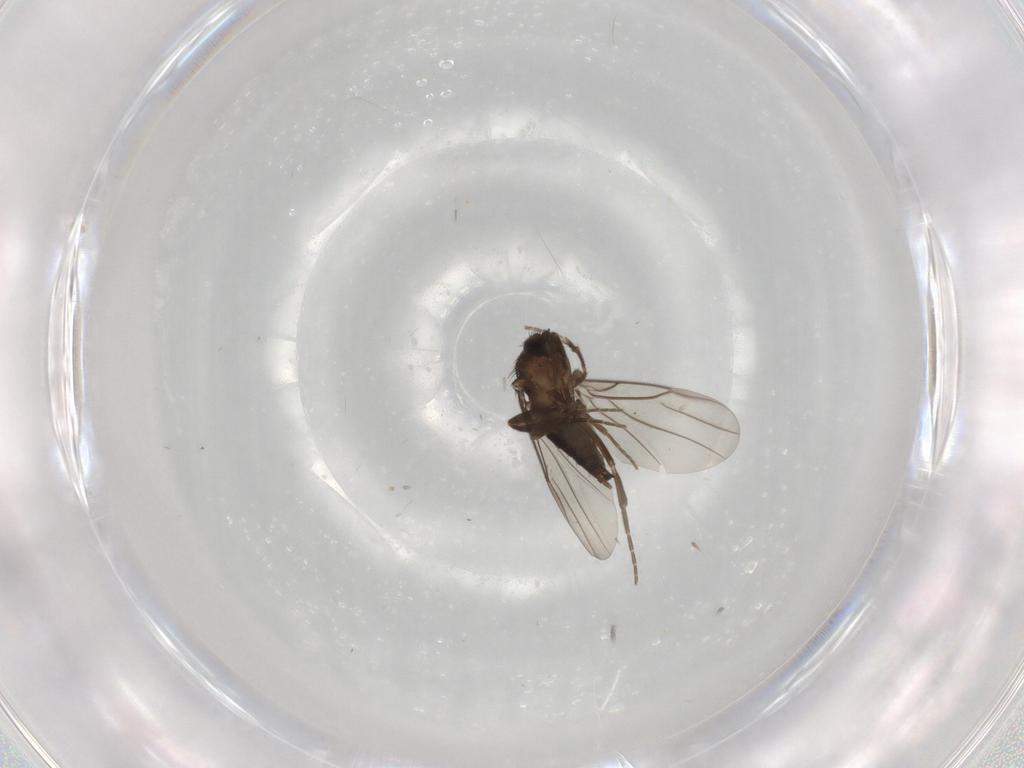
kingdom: Animalia
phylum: Arthropoda
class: Insecta
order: Diptera
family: Phoridae
